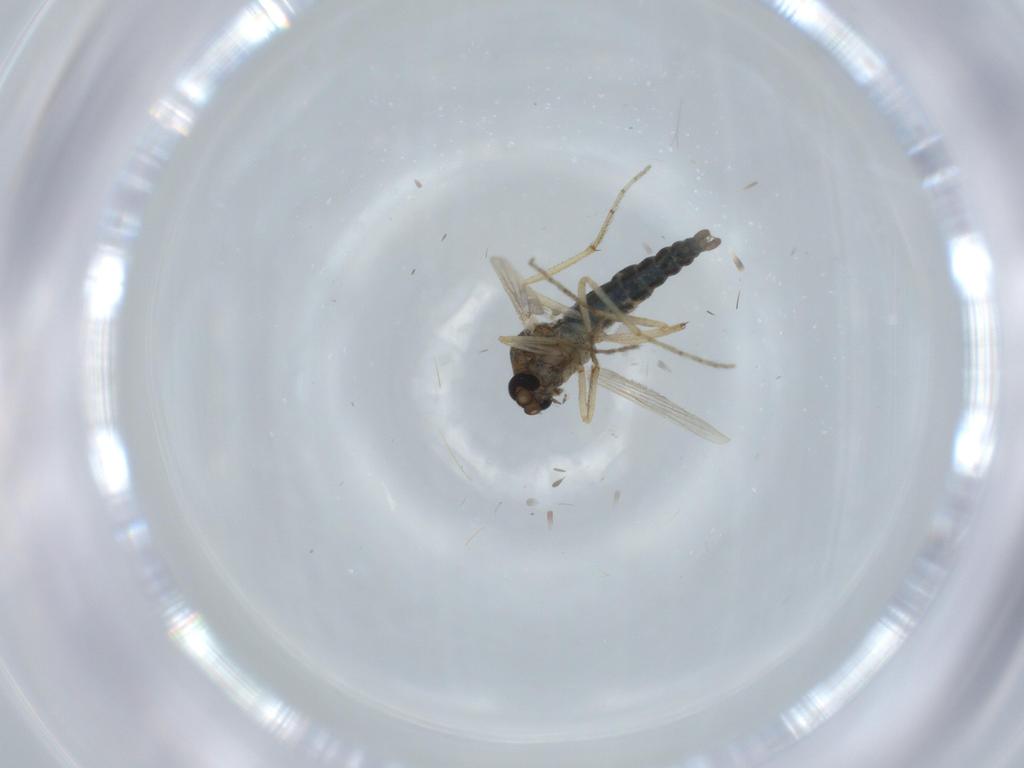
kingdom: Animalia
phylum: Arthropoda
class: Insecta
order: Diptera
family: Ceratopogonidae
